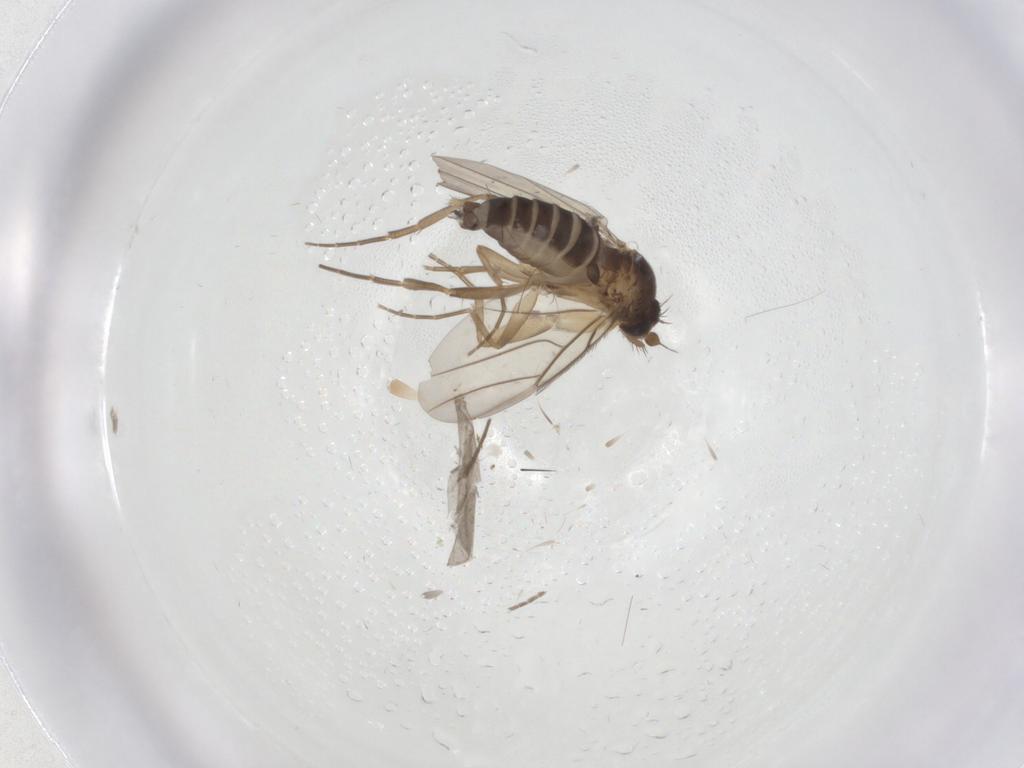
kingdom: Animalia
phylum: Arthropoda
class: Insecta
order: Diptera
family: Phoridae
